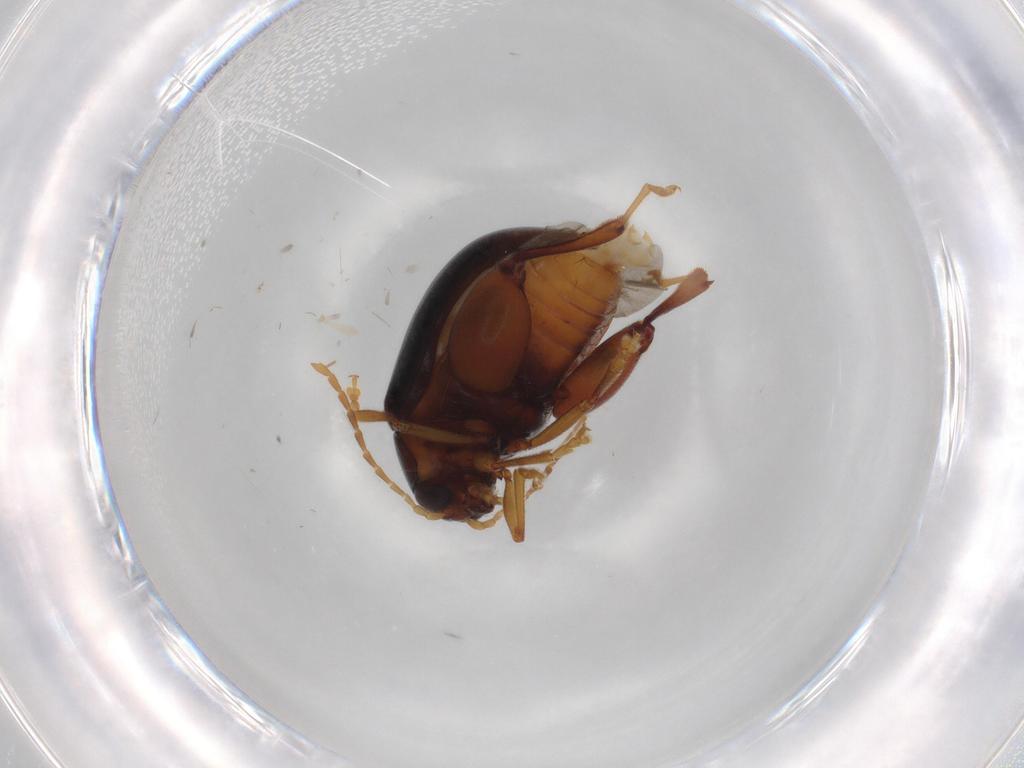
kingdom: Animalia
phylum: Arthropoda
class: Insecta
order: Coleoptera
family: Chrysomelidae
